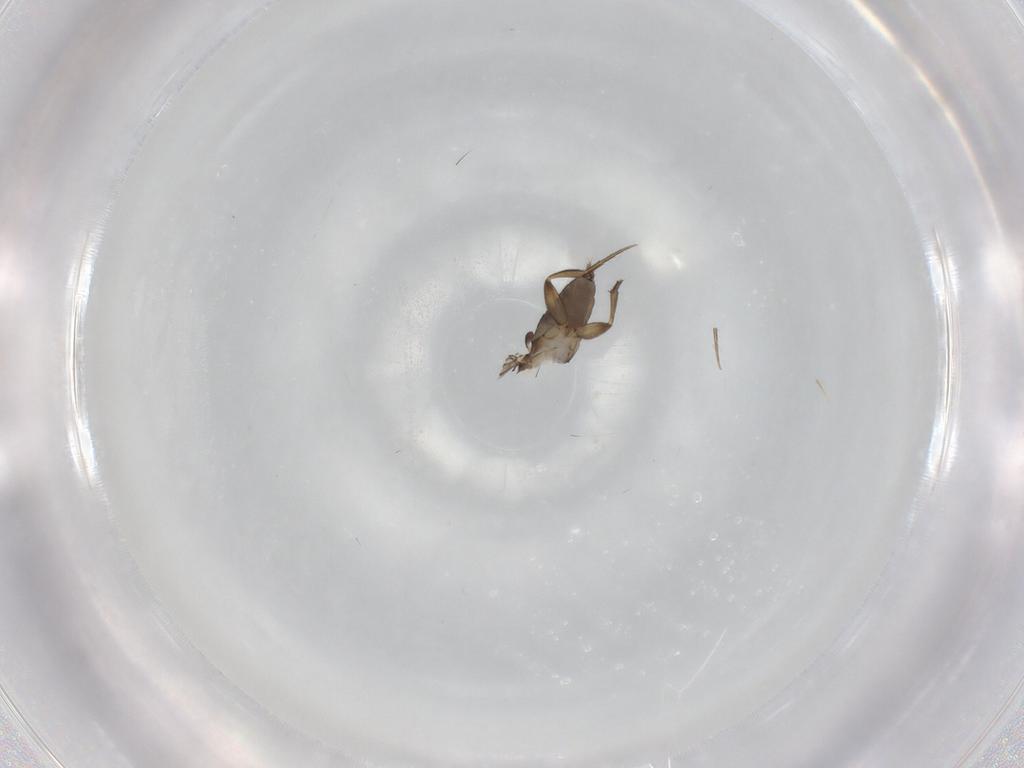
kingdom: Animalia
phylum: Arthropoda
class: Insecta
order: Diptera
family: Phoridae
